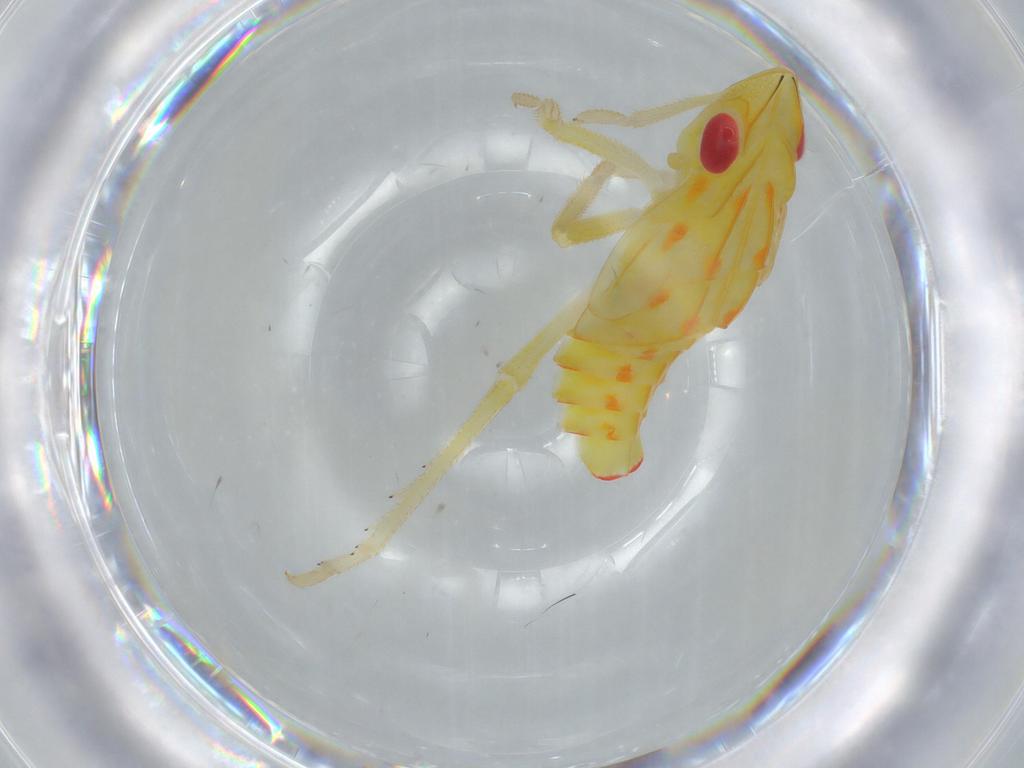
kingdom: Animalia
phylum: Arthropoda
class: Insecta
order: Hemiptera
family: Tropiduchidae
